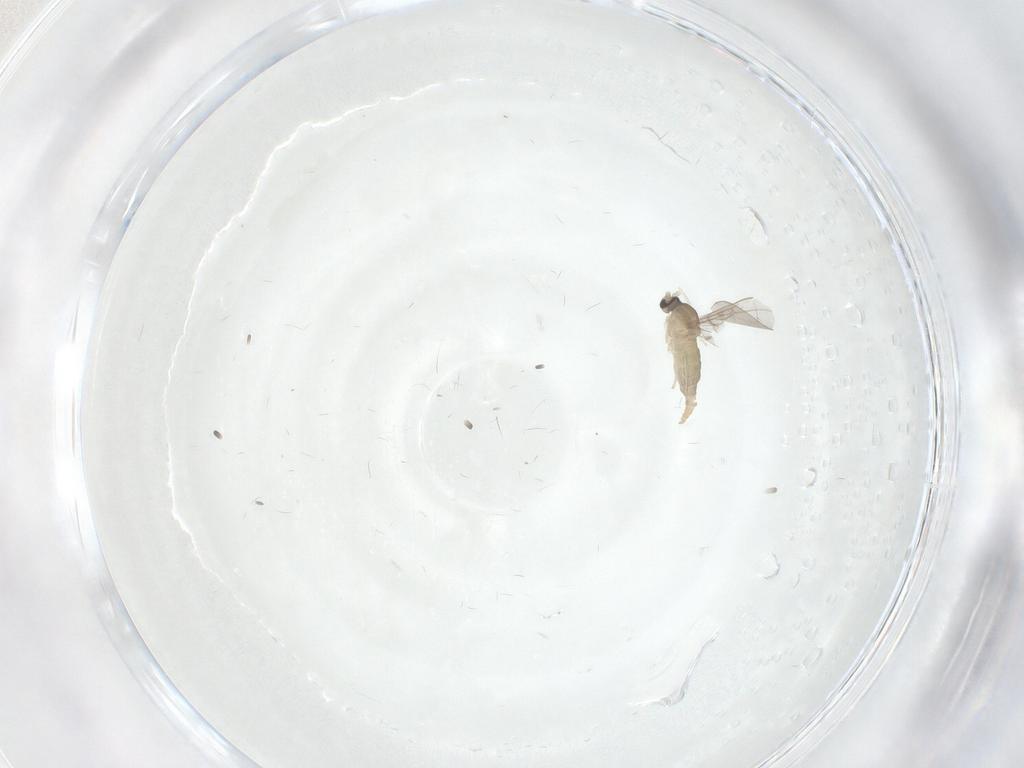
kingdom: Animalia
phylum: Arthropoda
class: Insecta
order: Diptera
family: Cecidomyiidae
